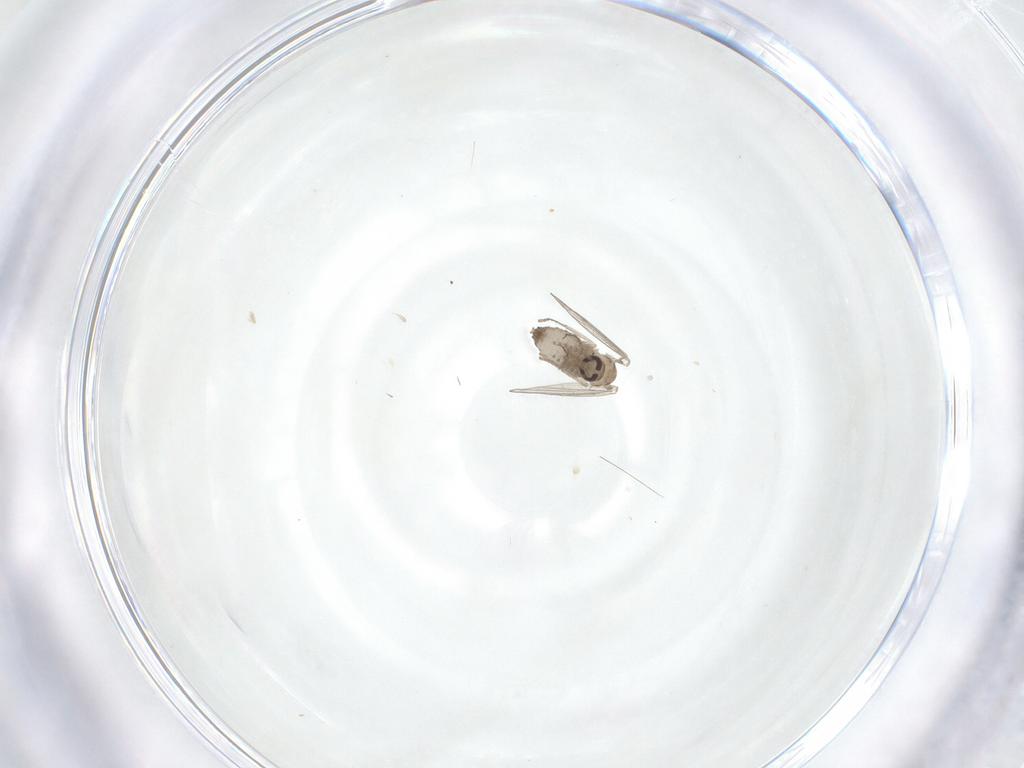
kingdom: Animalia
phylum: Arthropoda
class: Insecta
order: Diptera
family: Psychodidae
